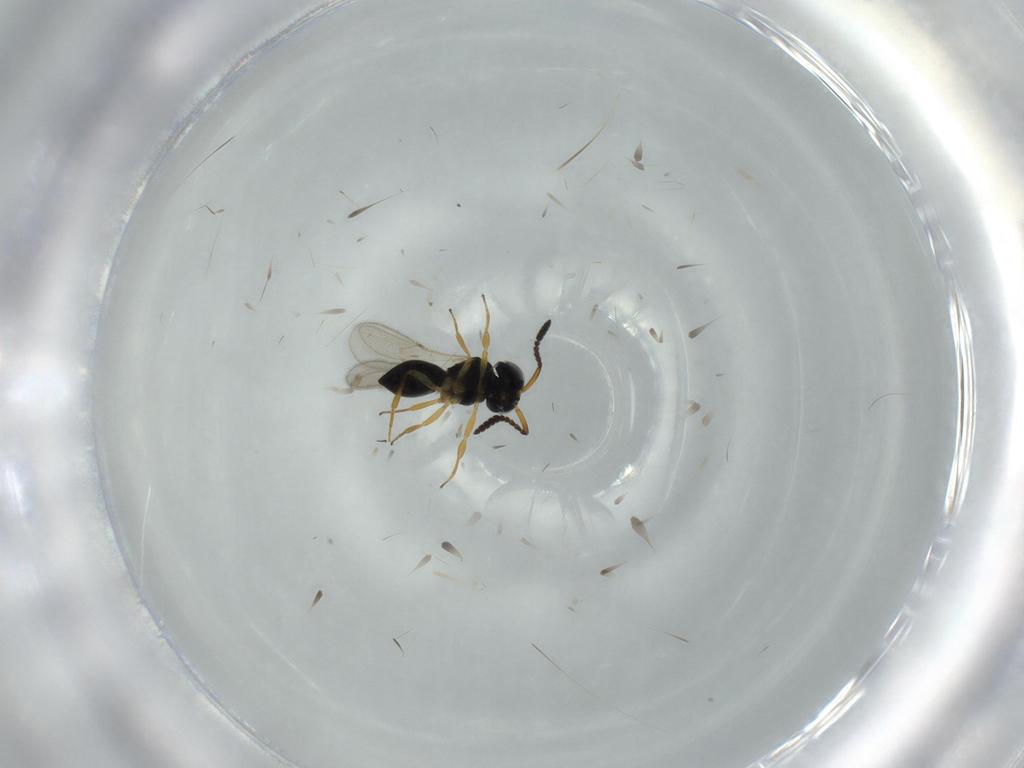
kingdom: Animalia
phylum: Arthropoda
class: Insecta
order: Hymenoptera
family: Scelionidae
